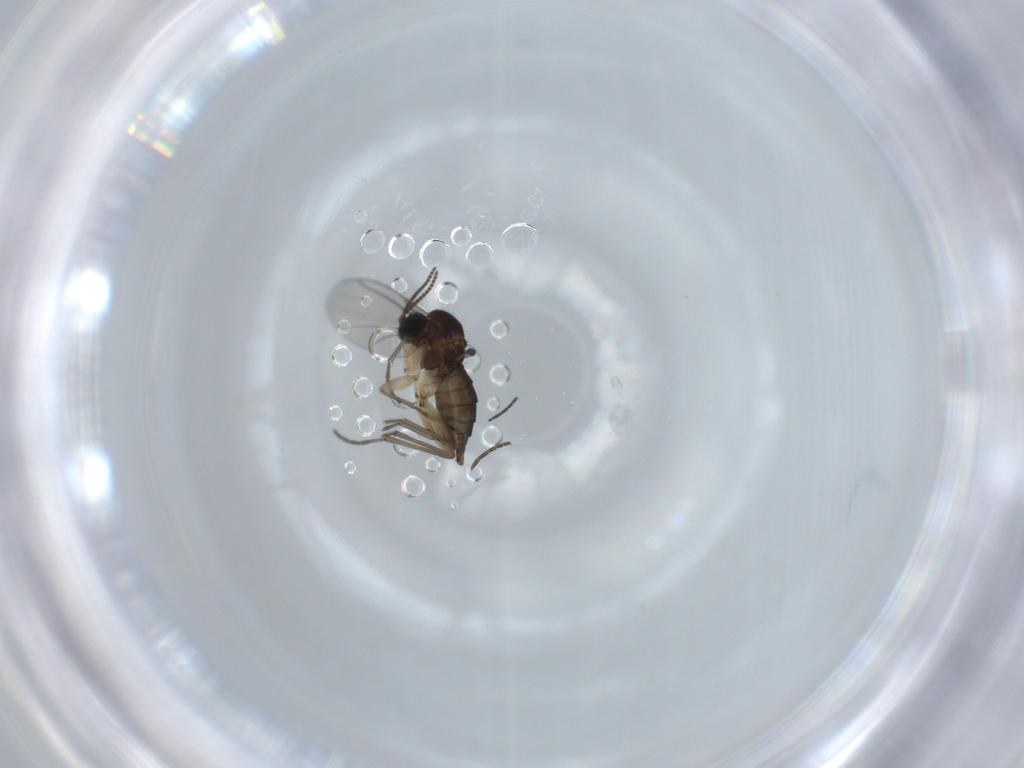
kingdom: Animalia
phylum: Arthropoda
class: Insecta
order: Diptera
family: Sciaridae
